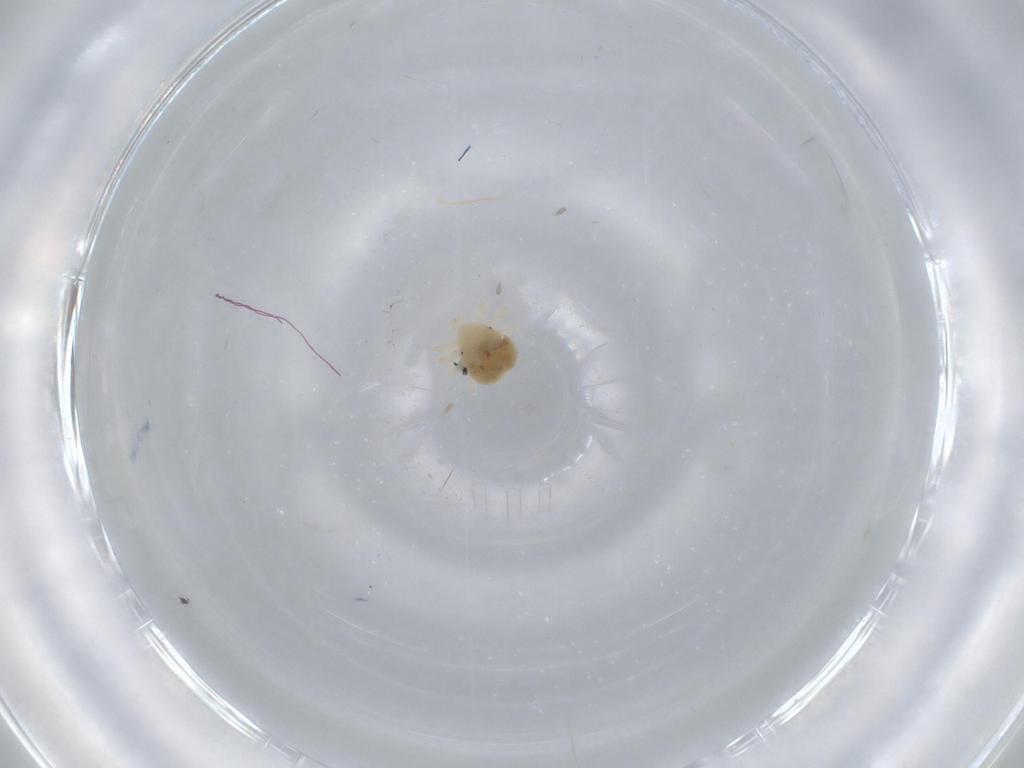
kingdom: Animalia
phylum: Arthropoda
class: Arachnida
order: Trombidiformes
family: Anystidae
